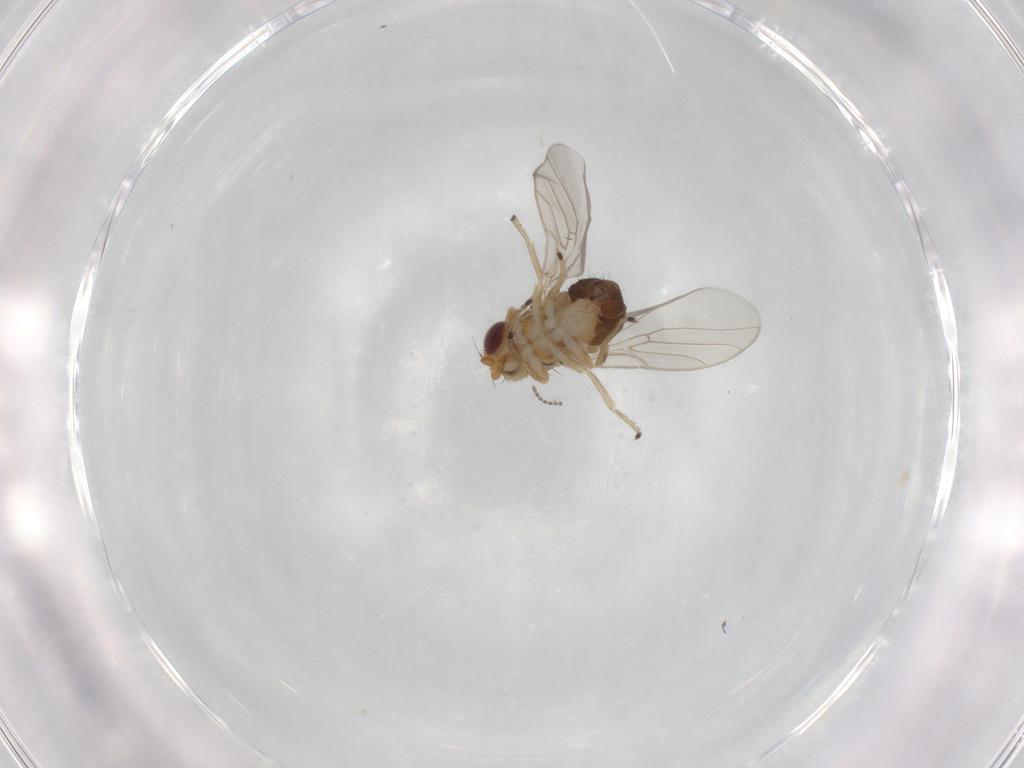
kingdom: Animalia
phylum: Arthropoda
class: Insecta
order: Diptera
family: Chloropidae
